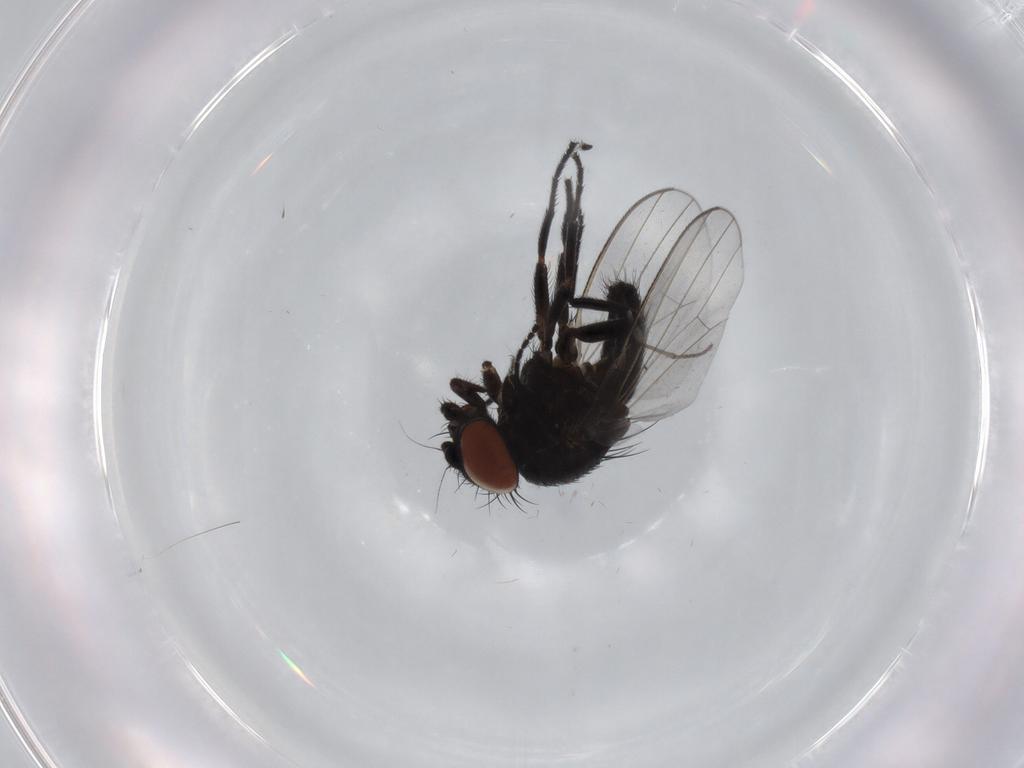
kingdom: Animalia
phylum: Arthropoda
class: Insecta
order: Diptera
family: Milichiidae
